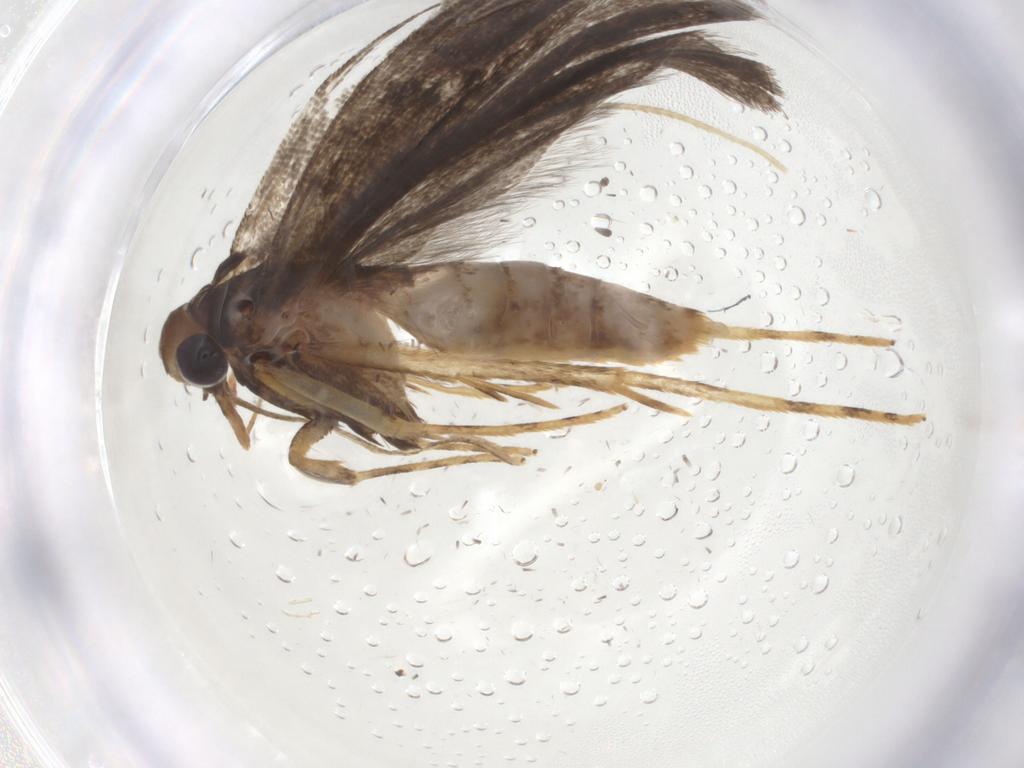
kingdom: Animalia
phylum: Arthropoda
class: Insecta
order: Lepidoptera
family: Cosmopterigidae
